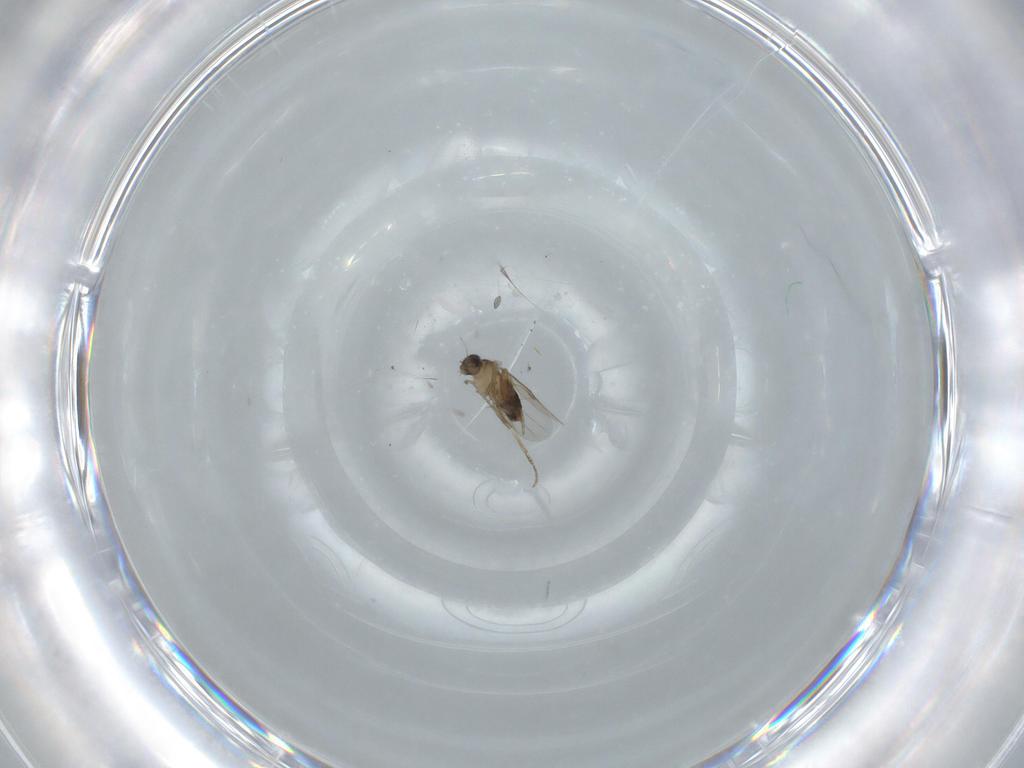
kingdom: Animalia
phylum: Arthropoda
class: Insecta
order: Diptera
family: Phoridae
